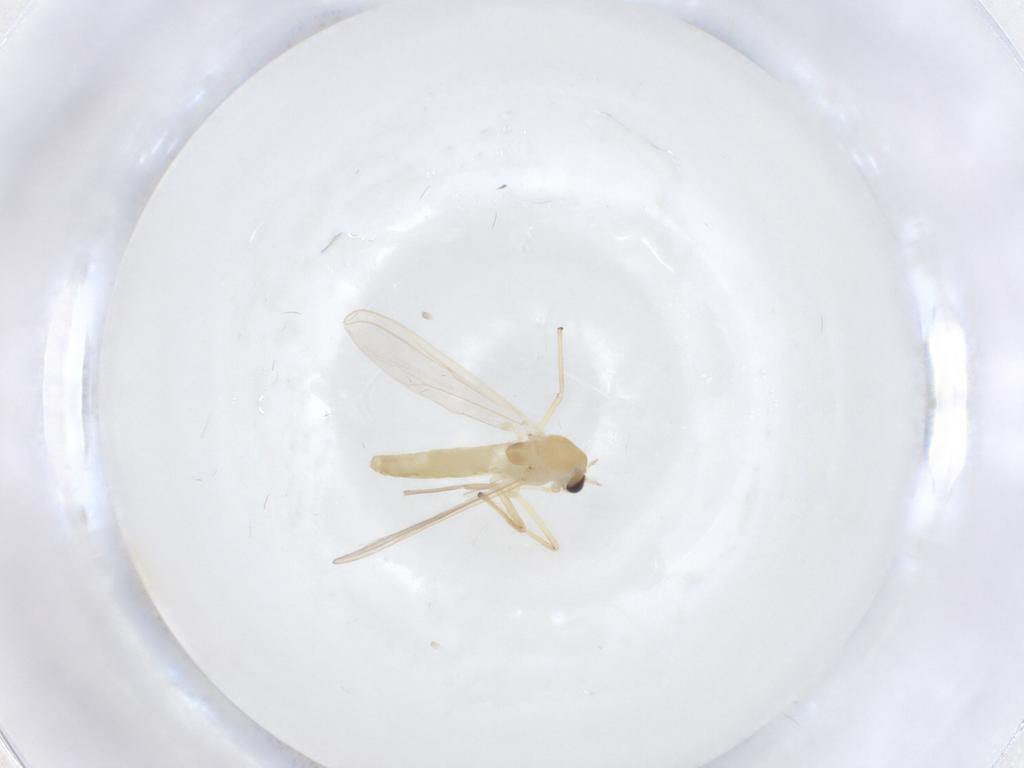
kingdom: Animalia
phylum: Arthropoda
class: Insecta
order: Diptera
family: Chironomidae
